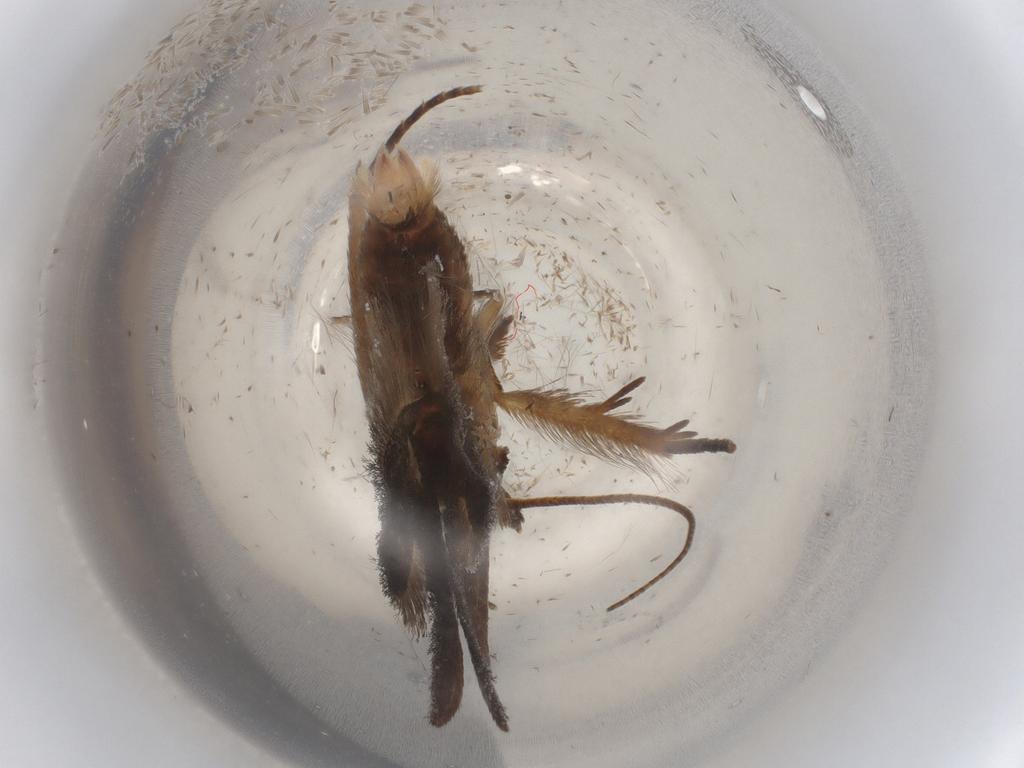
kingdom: Animalia
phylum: Arthropoda
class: Insecta
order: Lepidoptera
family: Gelechiidae
